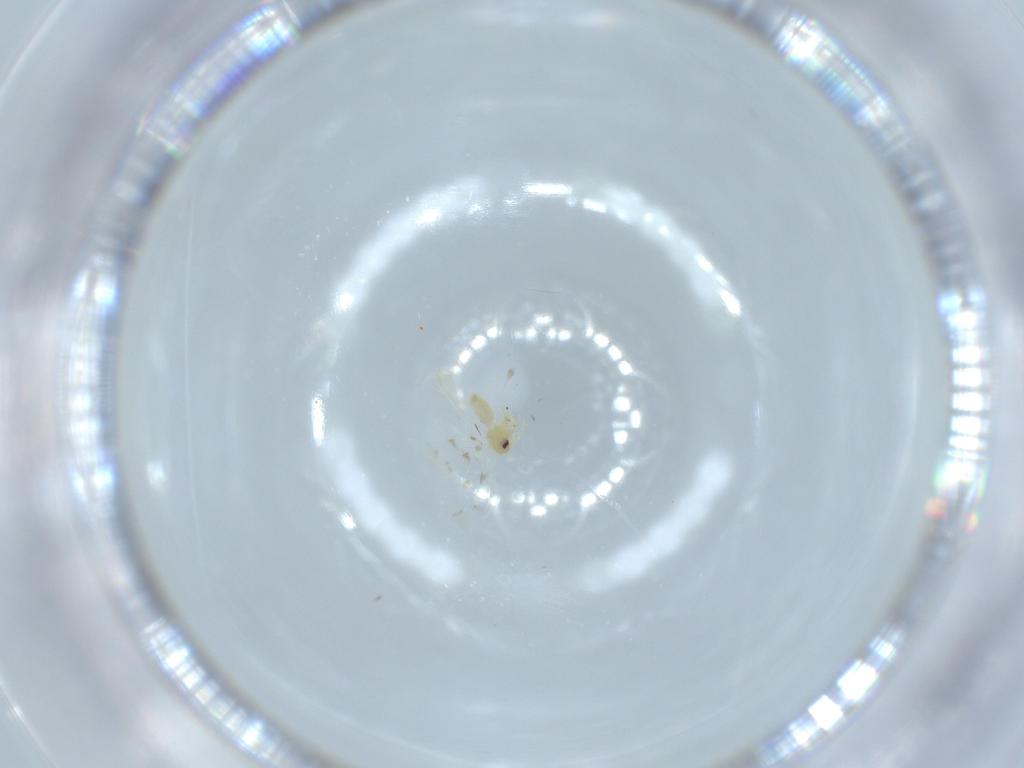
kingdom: Animalia
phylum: Arthropoda
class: Insecta
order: Hemiptera
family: Aleyrodidae
